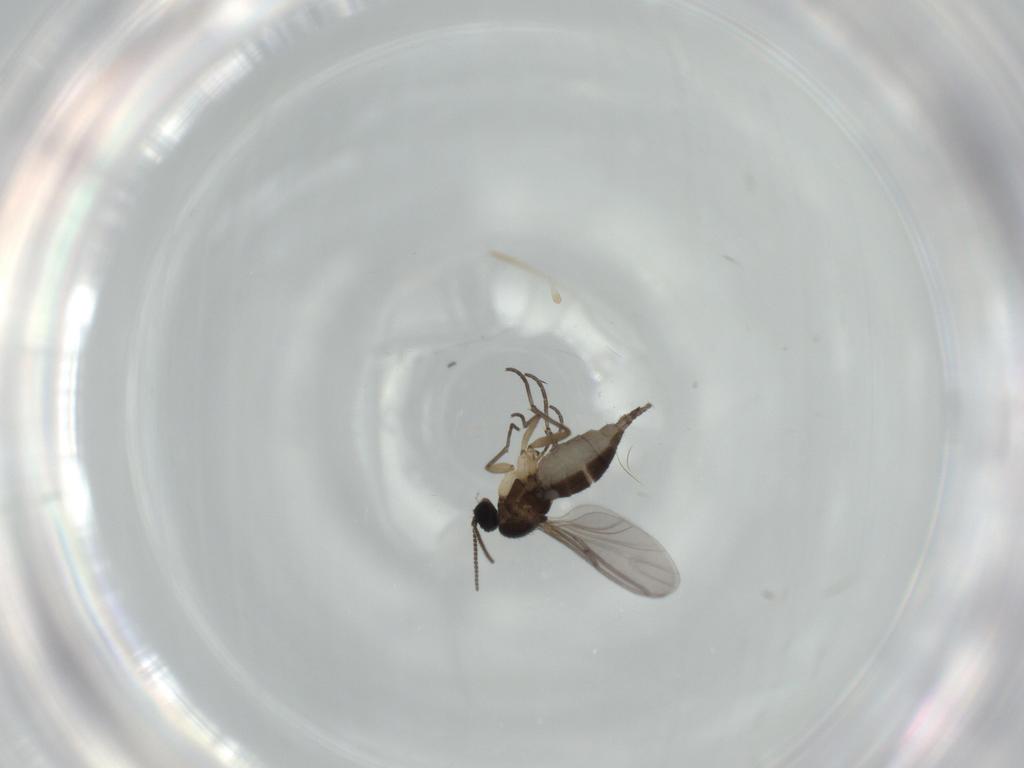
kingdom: Animalia
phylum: Arthropoda
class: Insecta
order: Diptera
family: Sciaridae
